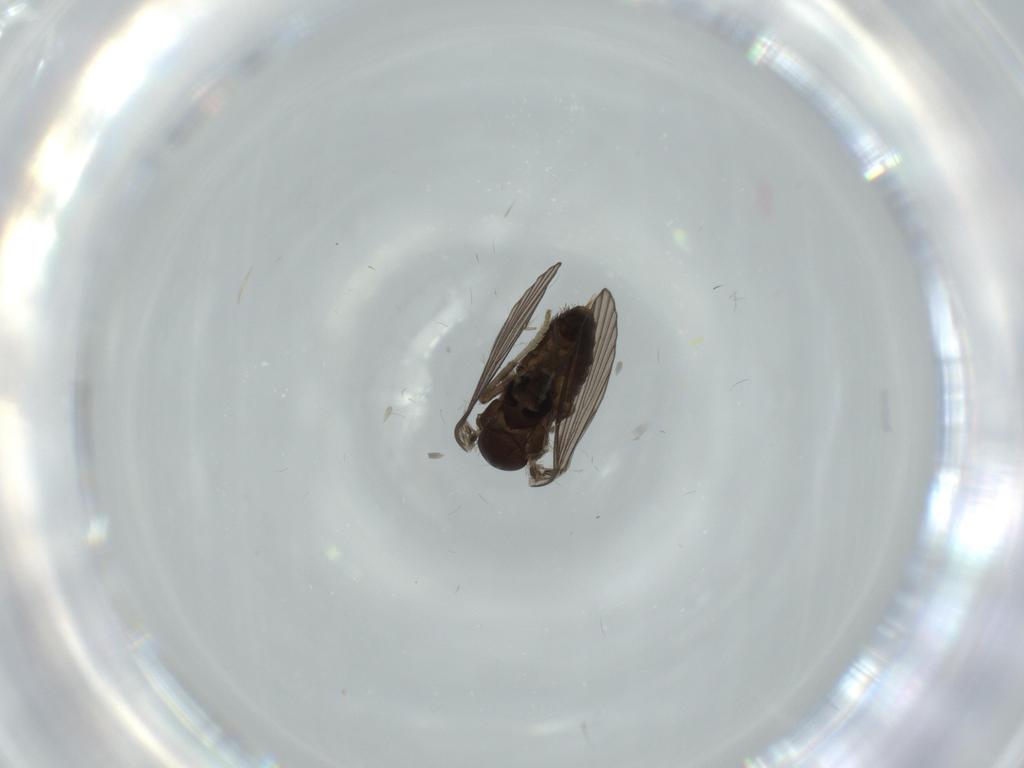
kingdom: Animalia
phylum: Arthropoda
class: Insecta
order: Diptera
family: Psychodidae
